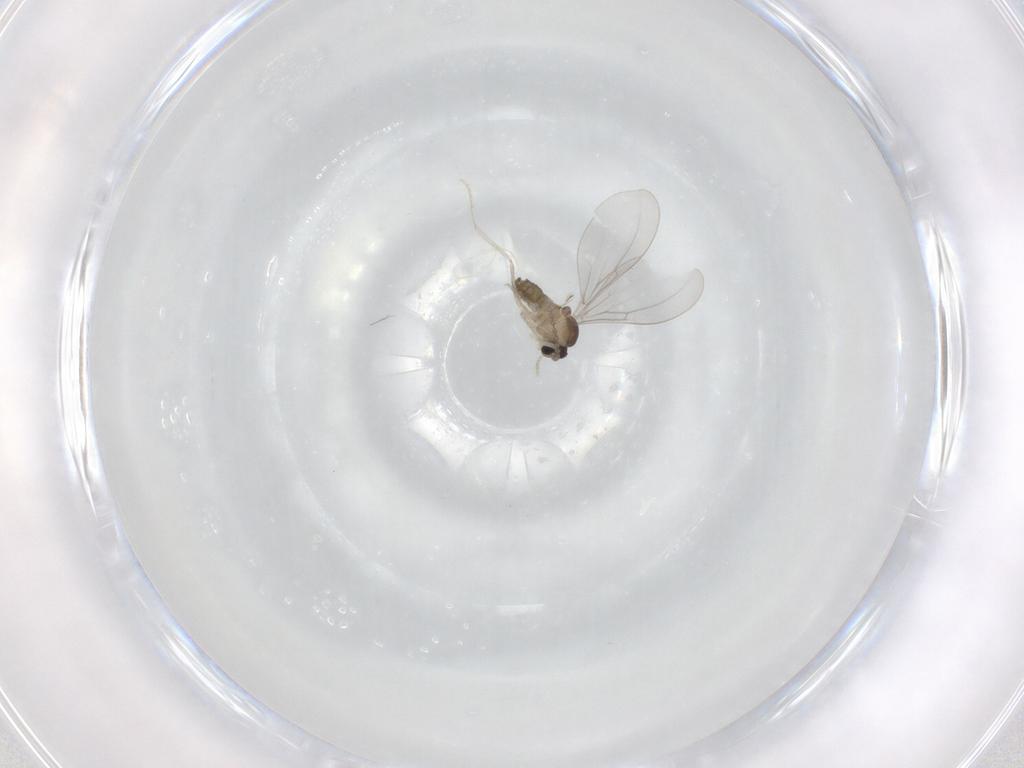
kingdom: Animalia
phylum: Arthropoda
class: Insecta
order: Diptera
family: Cecidomyiidae
